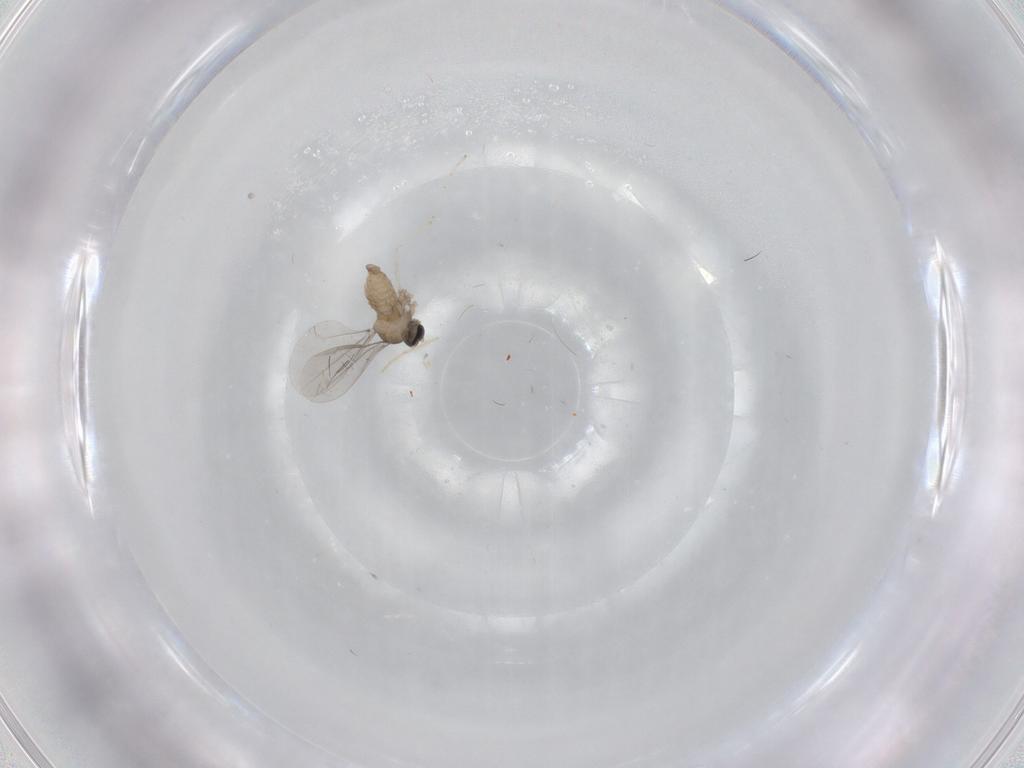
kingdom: Animalia
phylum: Arthropoda
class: Insecta
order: Diptera
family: Cecidomyiidae
